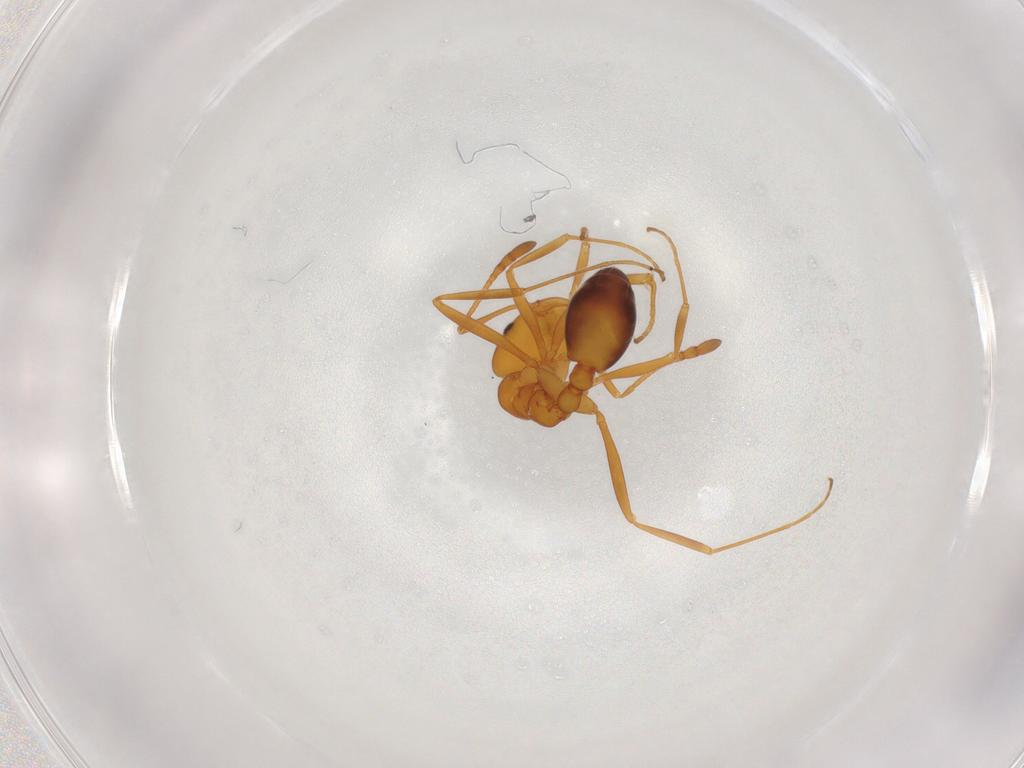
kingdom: Animalia
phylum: Arthropoda
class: Insecta
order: Hymenoptera
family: Formicidae
